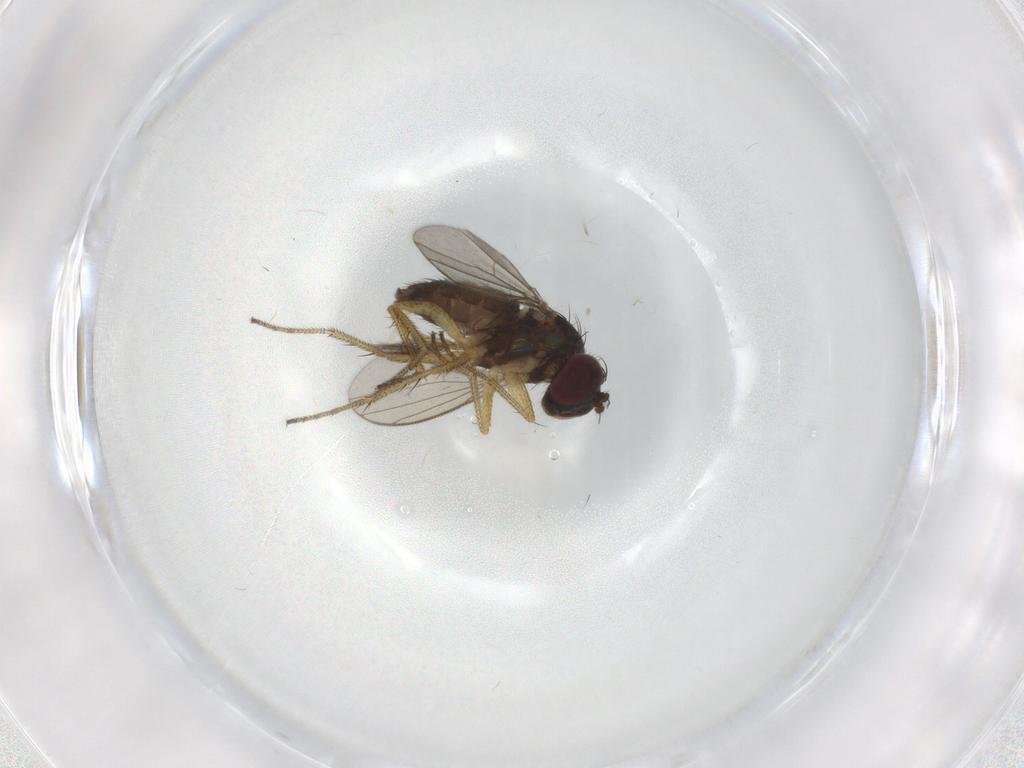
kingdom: Animalia
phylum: Arthropoda
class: Insecta
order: Diptera
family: Ceratopogonidae
